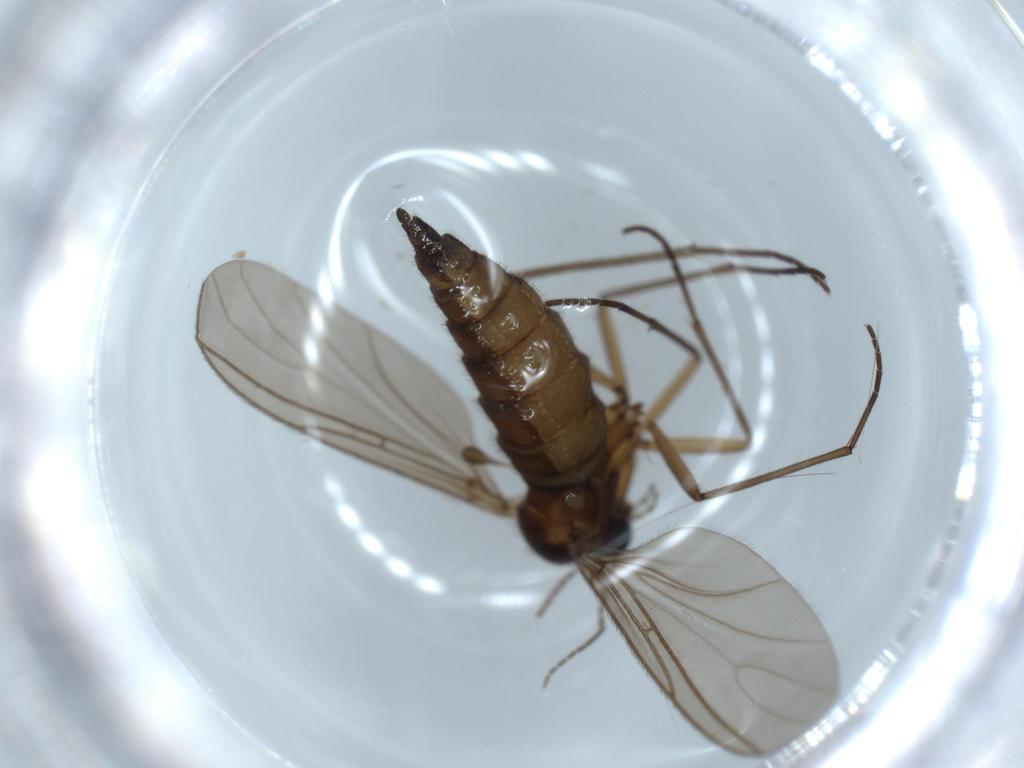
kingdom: Animalia
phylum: Arthropoda
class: Insecta
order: Diptera
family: Sciaridae
